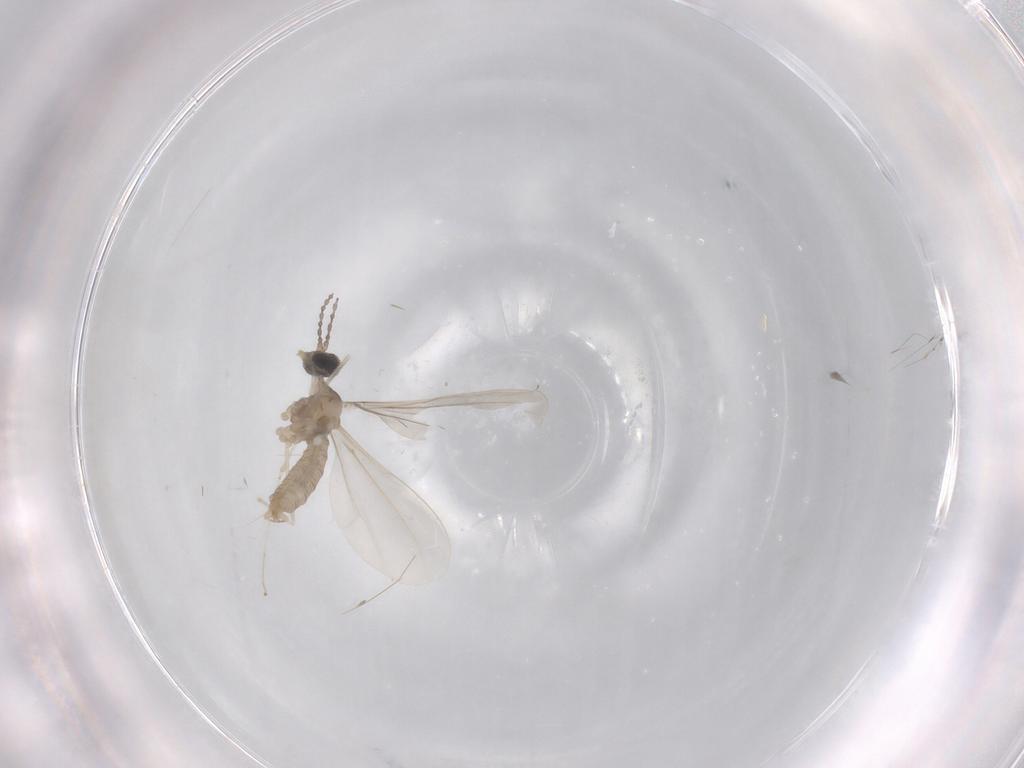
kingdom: Animalia
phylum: Arthropoda
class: Insecta
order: Diptera
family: Cecidomyiidae
